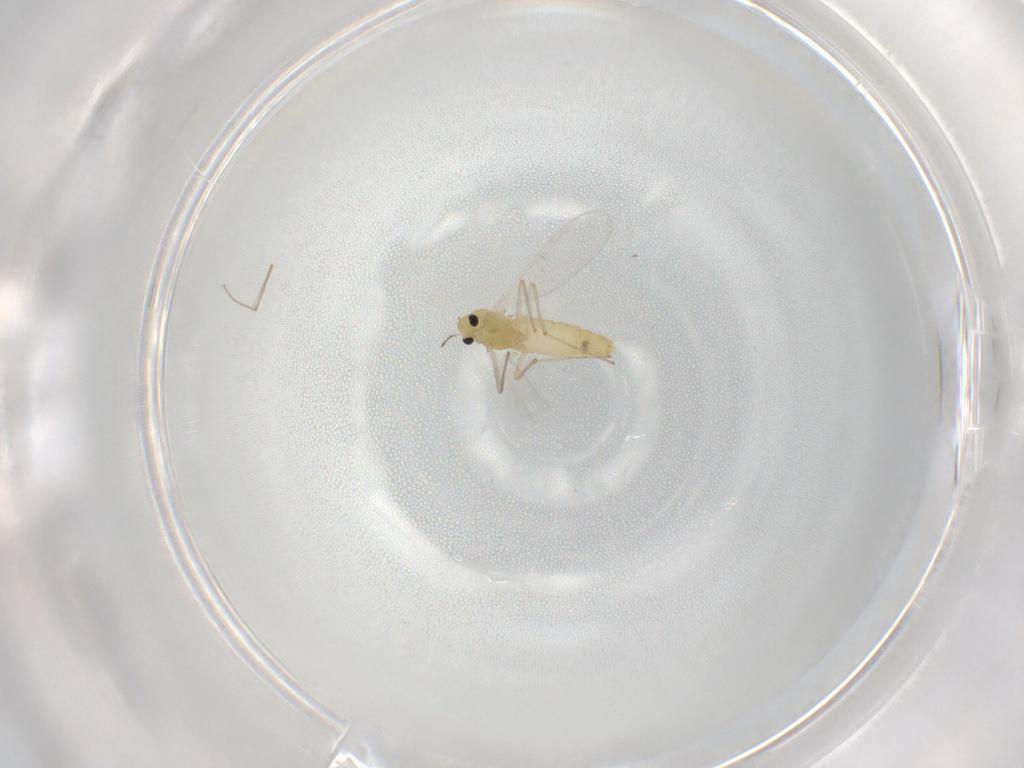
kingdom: Animalia
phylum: Arthropoda
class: Insecta
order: Diptera
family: Chironomidae
